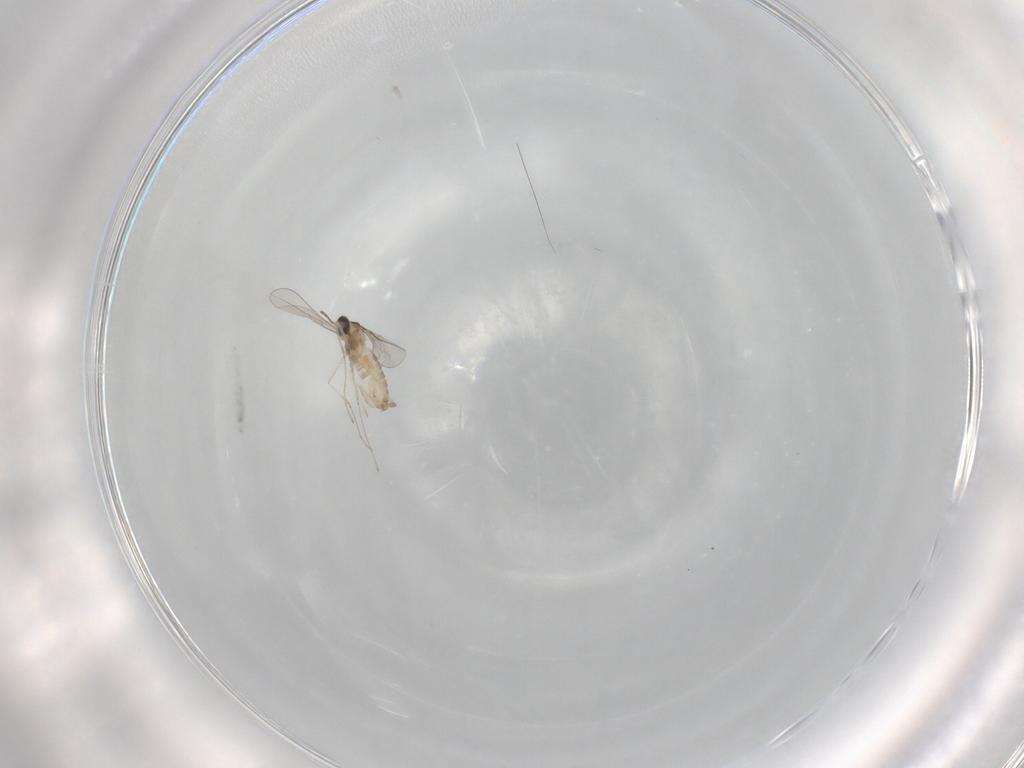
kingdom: Animalia
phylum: Arthropoda
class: Insecta
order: Diptera
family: Cecidomyiidae
